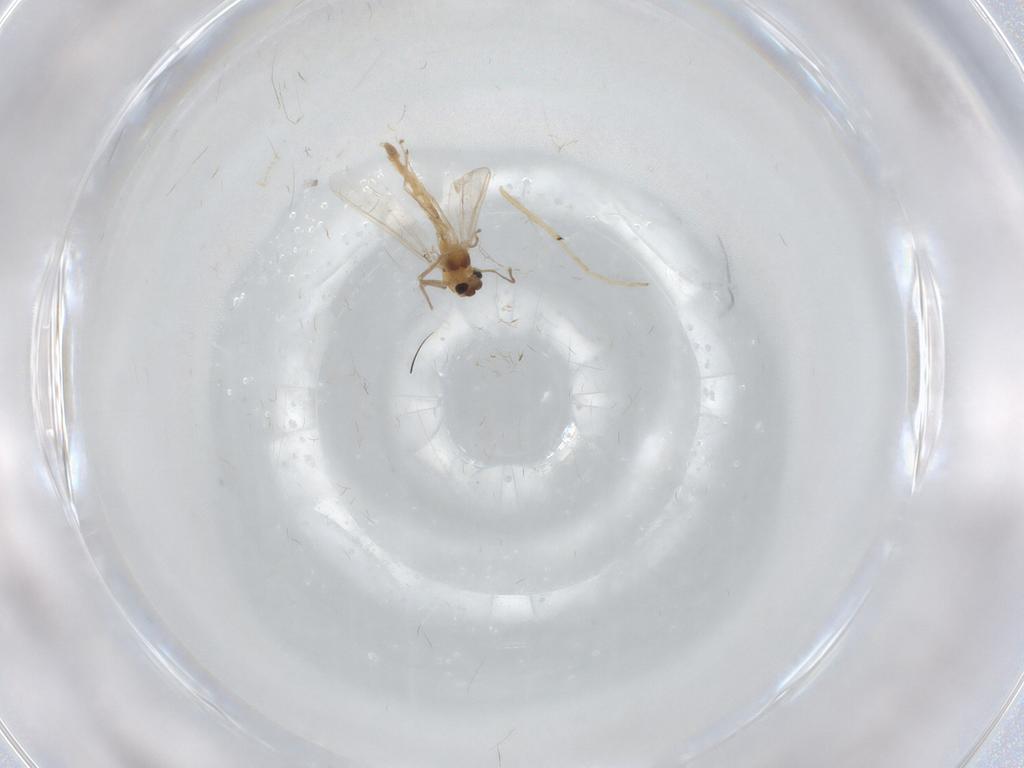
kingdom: Animalia
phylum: Arthropoda
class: Insecta
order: Diptera
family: Chironomidae
